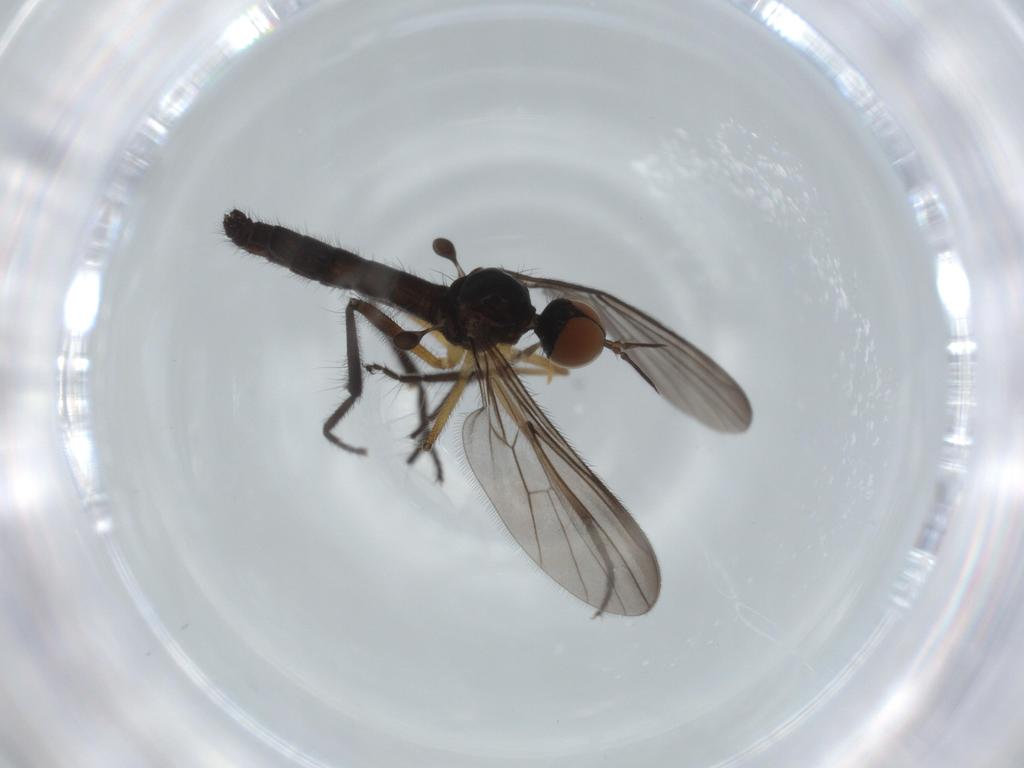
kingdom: Animalia
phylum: Arthropoda
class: Insecta
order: Diptera
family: Empididae
